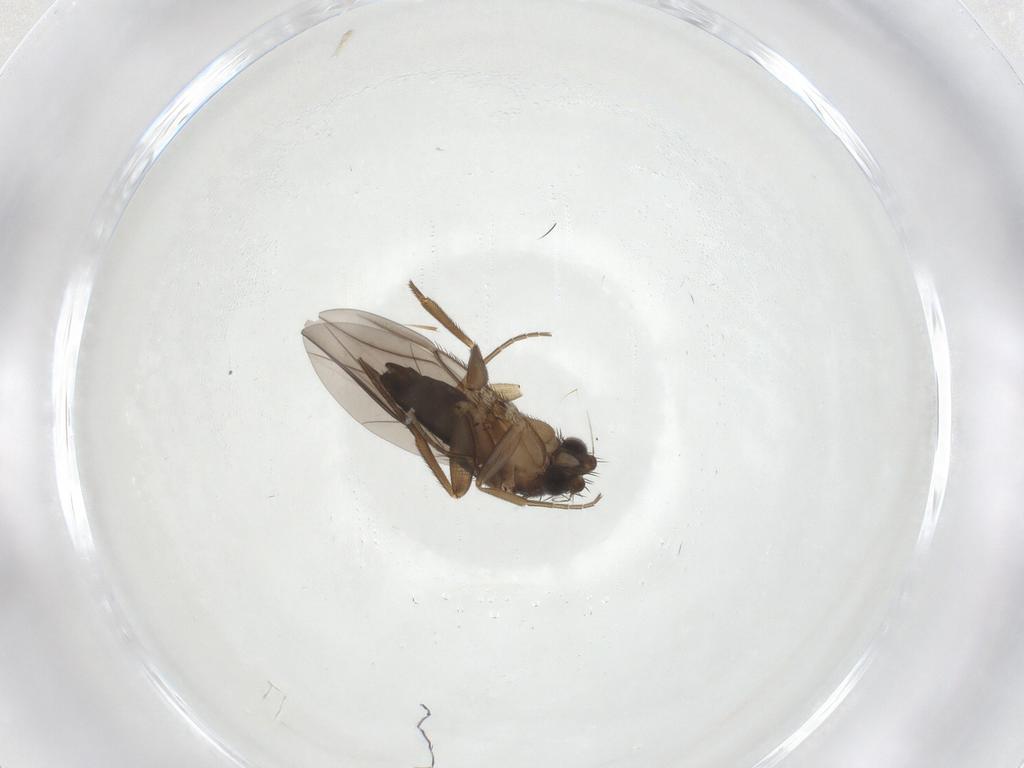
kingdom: Animalia
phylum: Arthropoda
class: Insecta
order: Diptera
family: Phoridae
